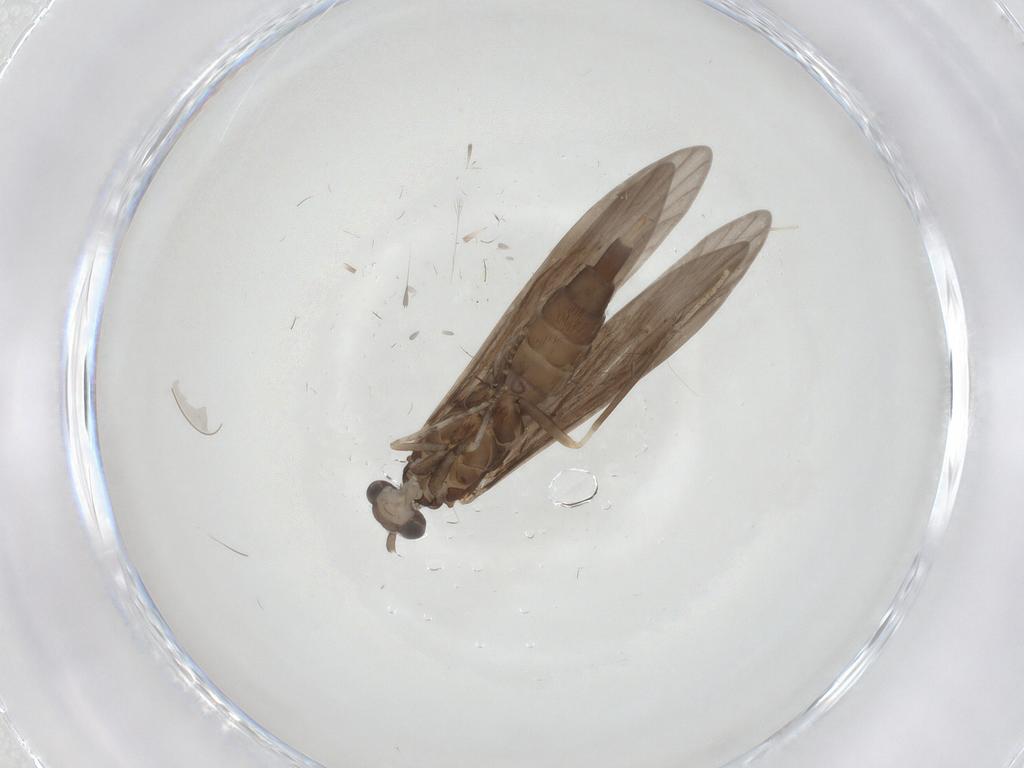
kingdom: Animalia
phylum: Arthropoda
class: Insecta
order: Trichoptera
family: Xiphocentronidae
